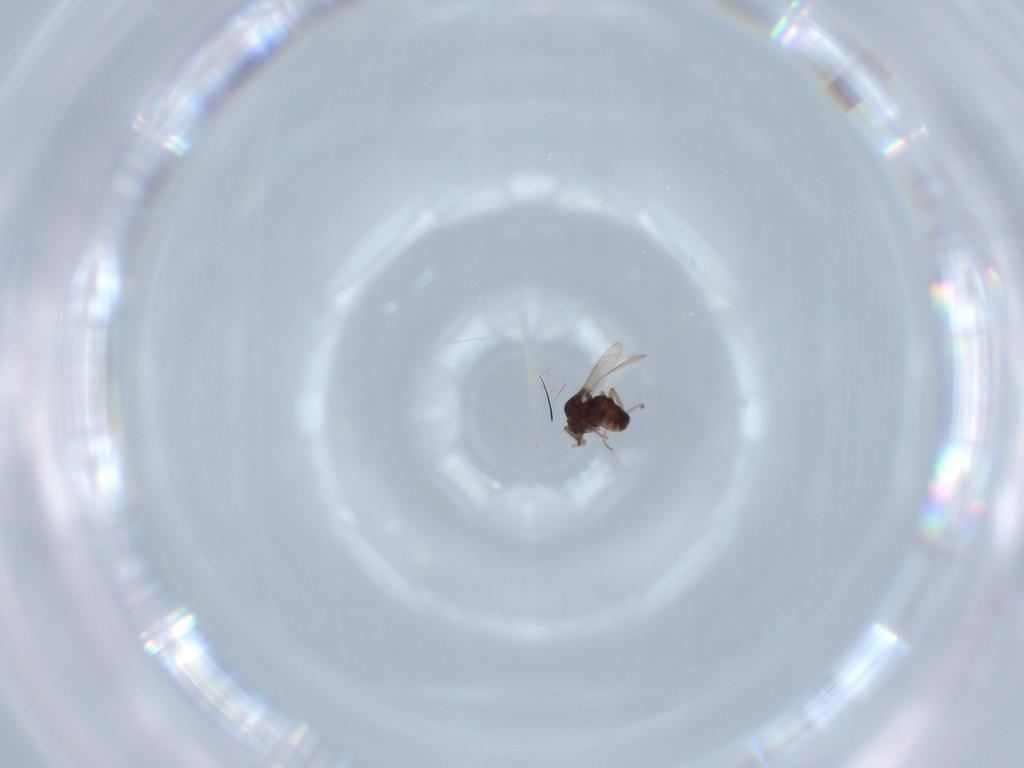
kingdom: Animalia
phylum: Arthropoda
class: Insecta
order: Diptera
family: Ceratopogonidae
